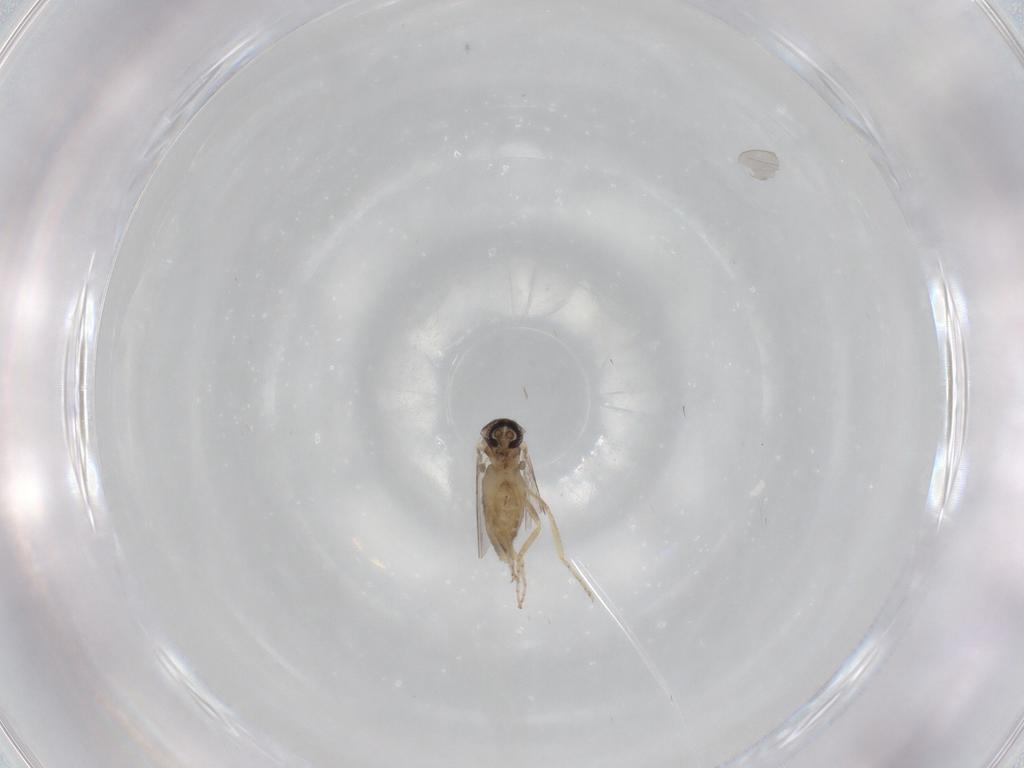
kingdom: Animalia
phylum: Arthropoda
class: Insecta
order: Diptera
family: Ceratopogonidae
